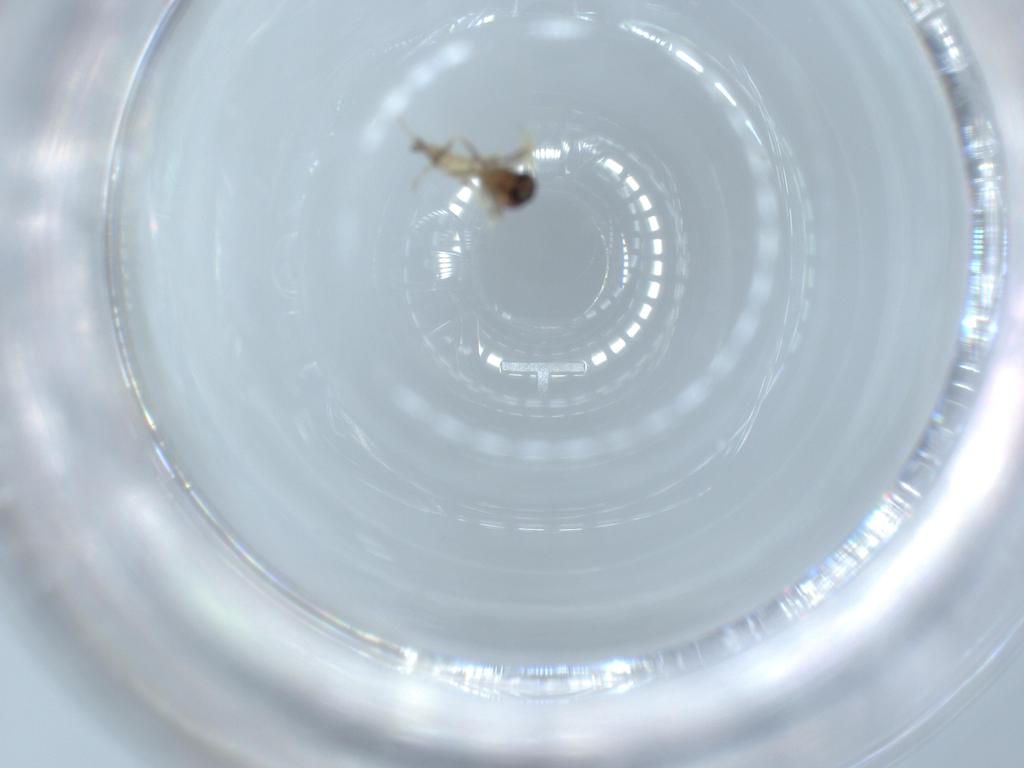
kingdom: Animalia
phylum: Arthropoda
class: Insecta
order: Diptera
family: Ceratopogonidae
